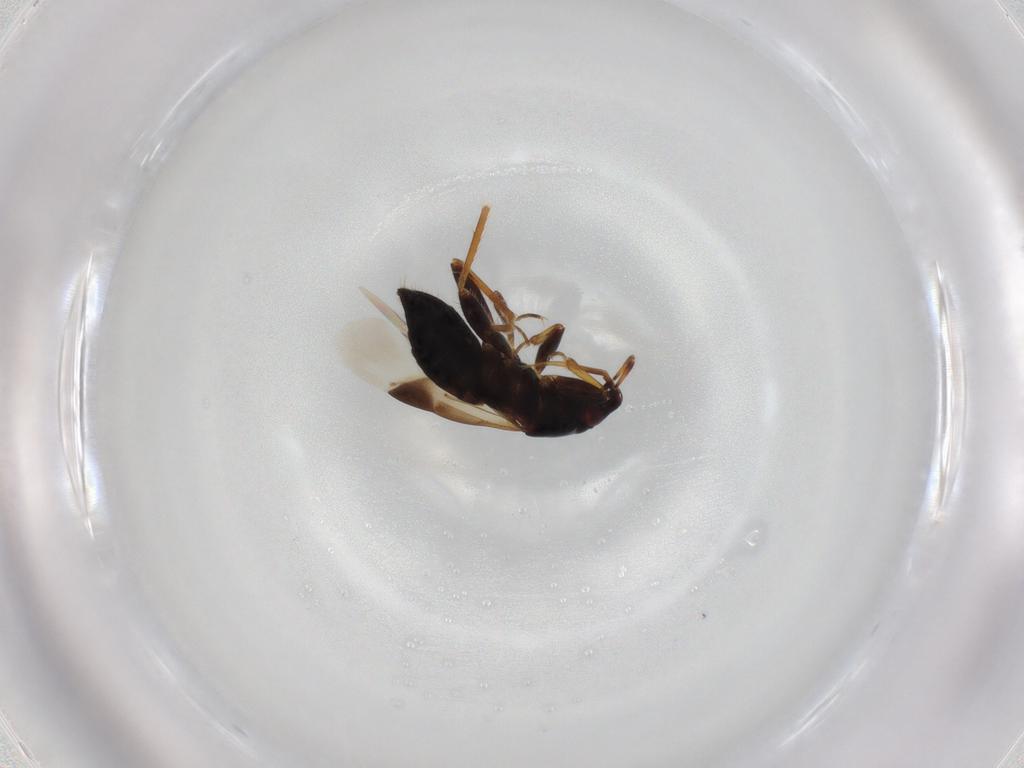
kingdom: Animalia
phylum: Arthropoda
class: Insecta
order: Hemiptera
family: Anthocoridae
